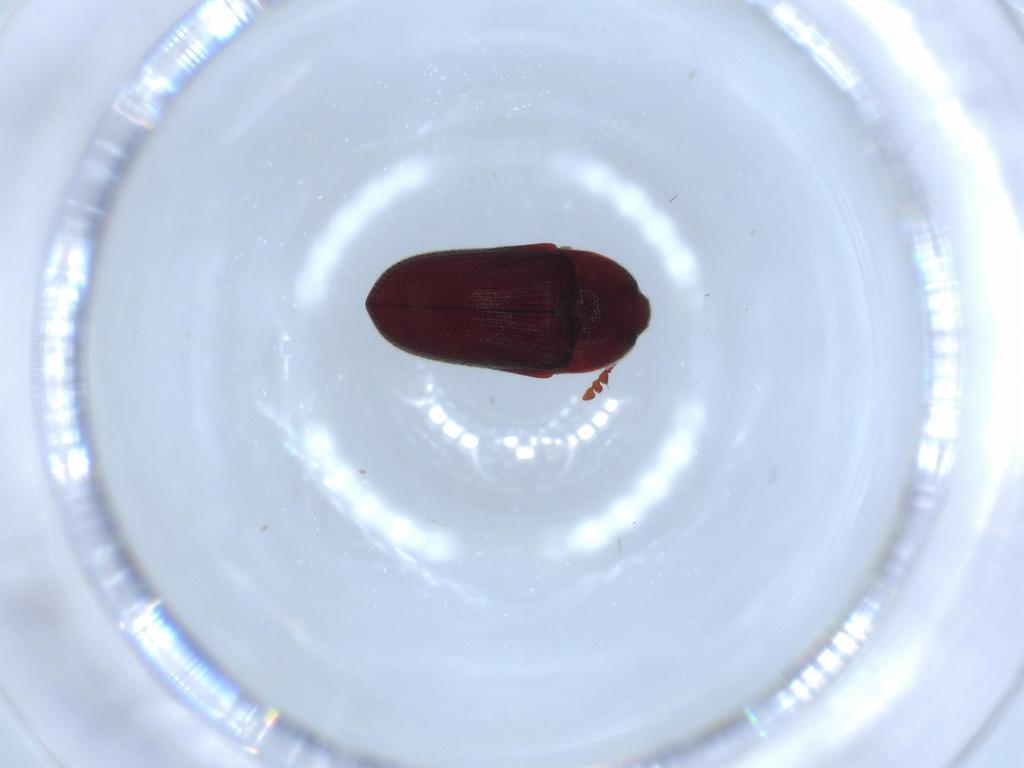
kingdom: Animalia
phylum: Arthropoda
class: Insecta
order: Coleoptera
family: Throscidae
